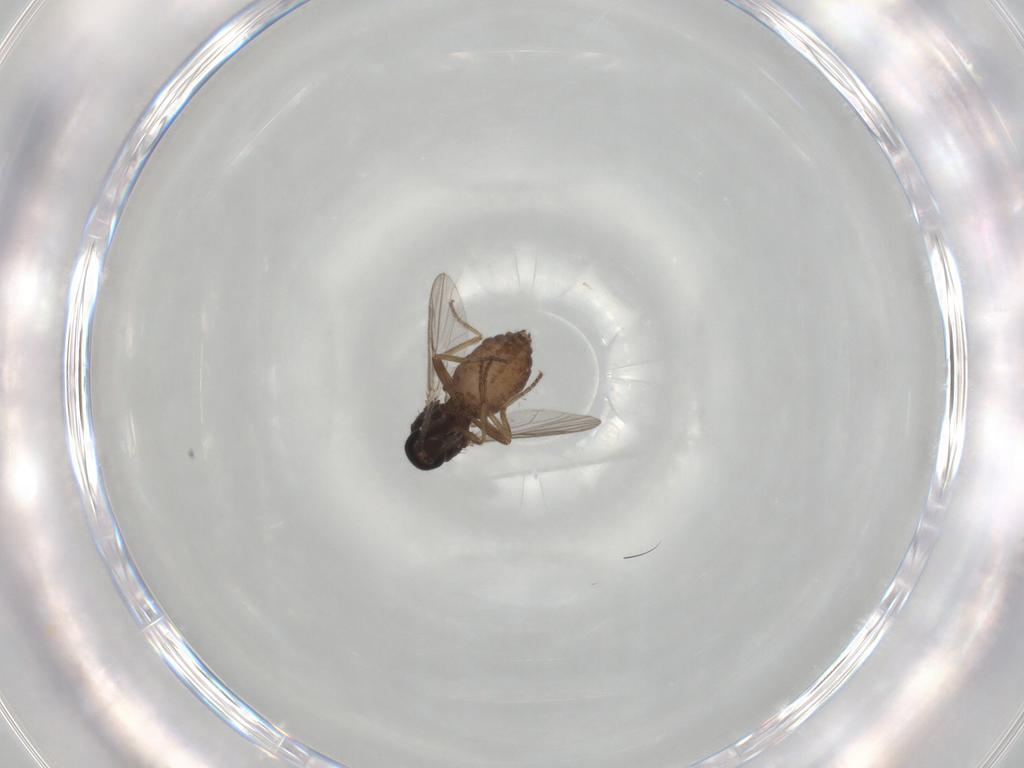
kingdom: Animalia
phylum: Arthropoda
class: Insecta
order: Diptera
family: Ceratopogonidae
